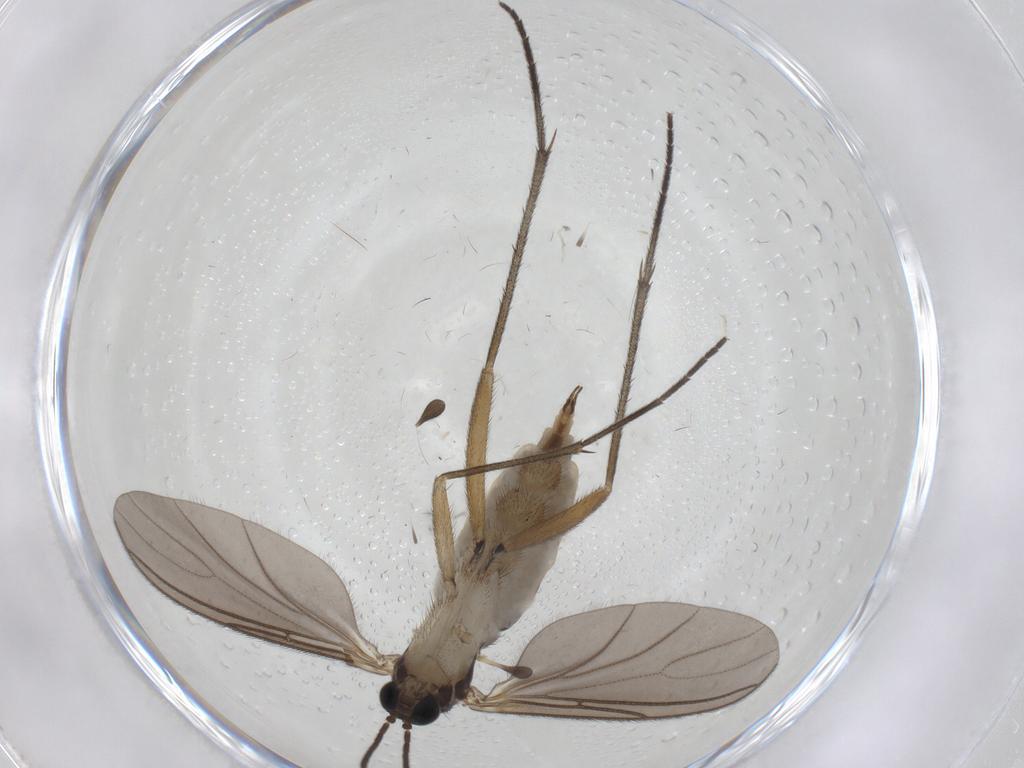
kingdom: Animalia
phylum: Arthropoda
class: Insecta
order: Diptera
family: Sciaridae
